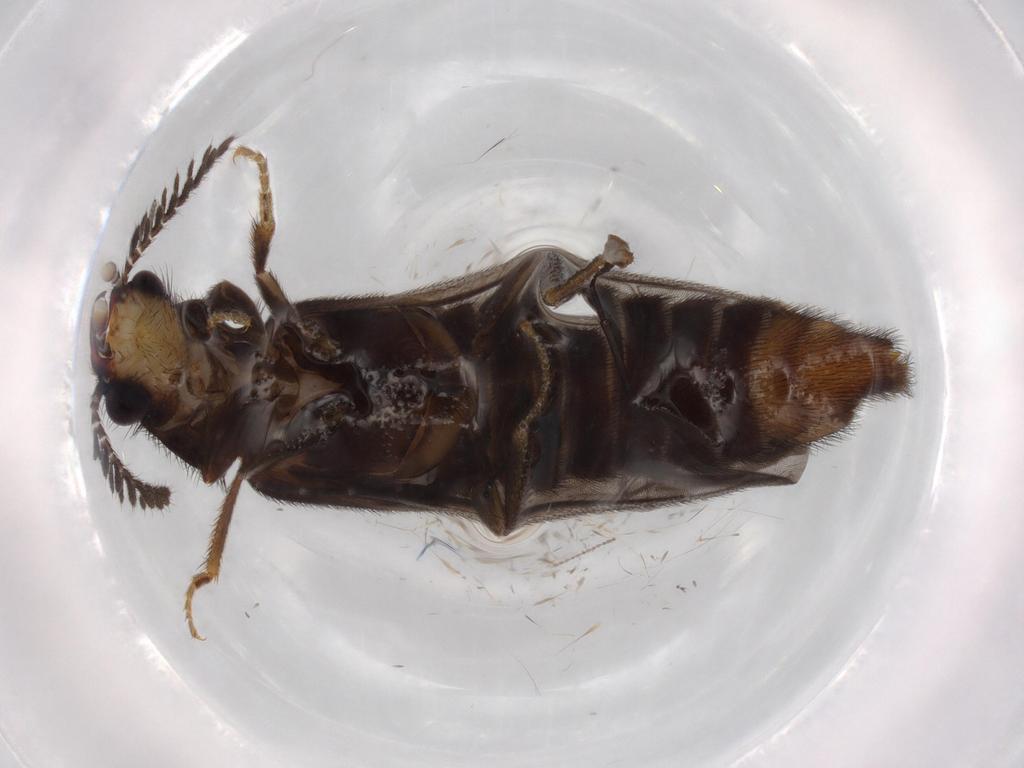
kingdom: Animalia
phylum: Arthropoda
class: Insecta
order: Coleoptera
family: Phengodidae
